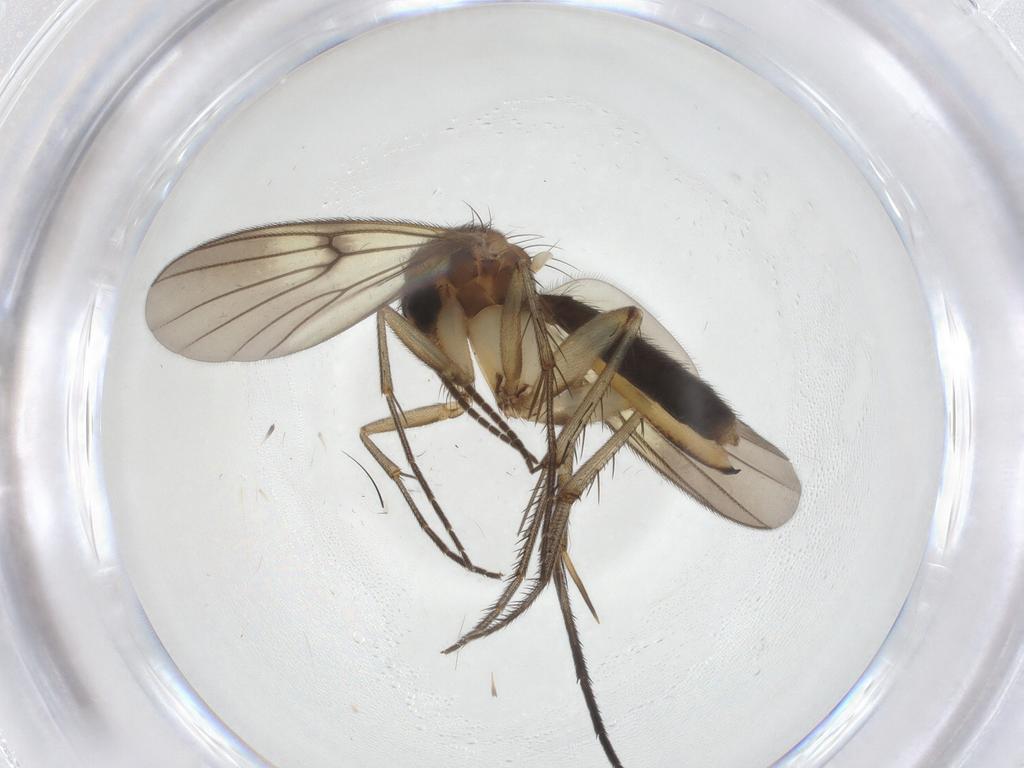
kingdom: Animalia
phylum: Arthropoda
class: Insecta
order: Diptera
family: Mycetophilidae
